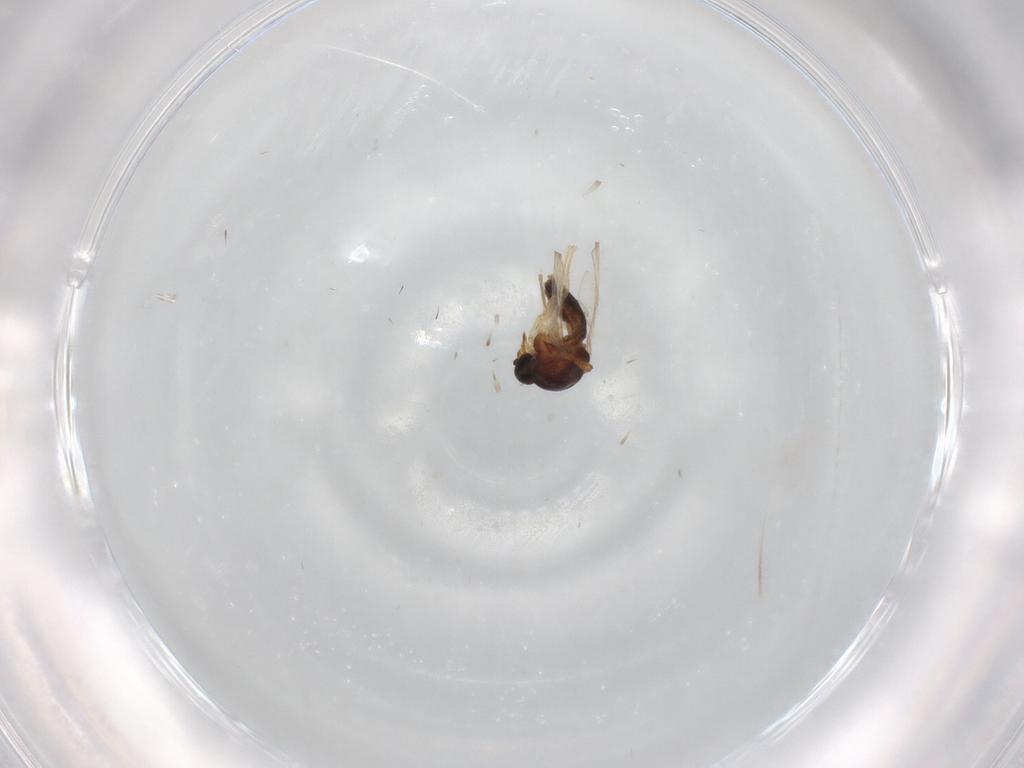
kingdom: Animalia
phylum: Arthropoda
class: Insecta
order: Diptera
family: Ceratopogonidae
